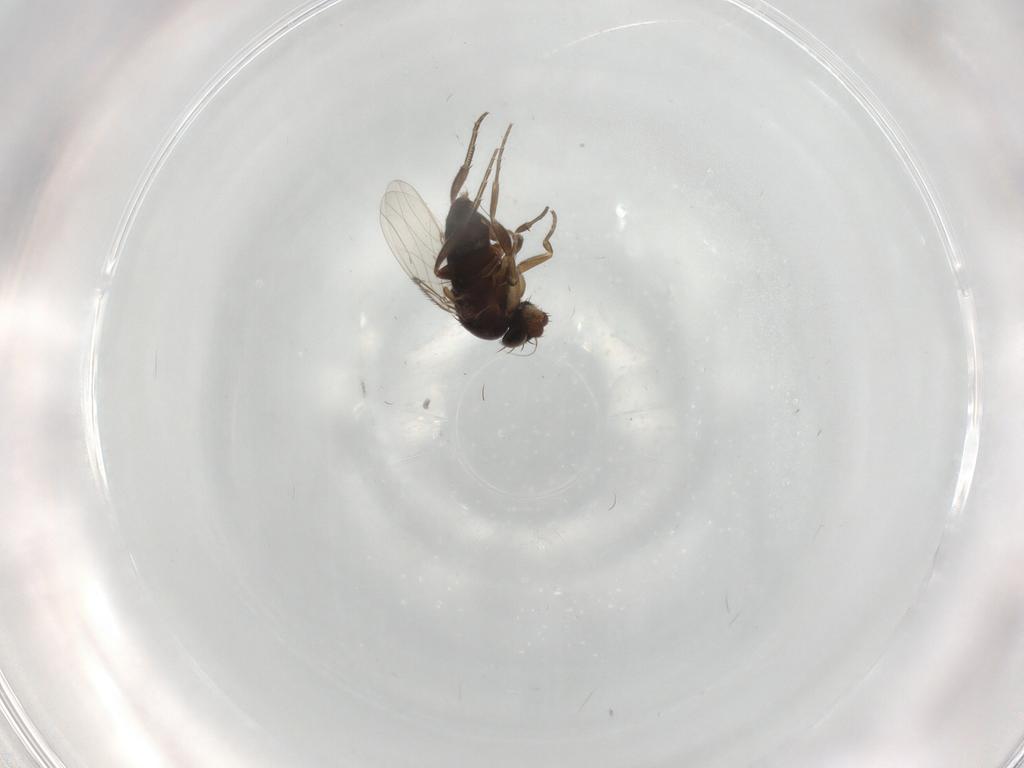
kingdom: Animalia
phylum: Arthropoda
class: Insecta
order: Diptera
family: Phoridae
